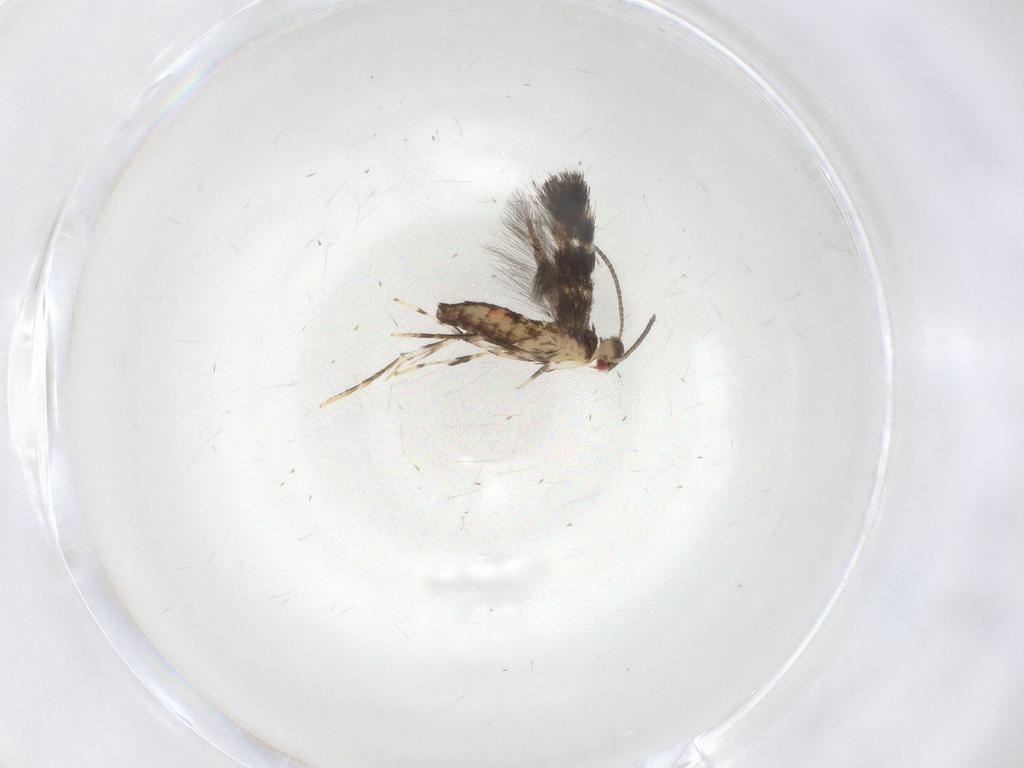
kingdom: Animalia
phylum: Arthropoda
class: Insecta
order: Lepidoptera
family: Gracillariidae
